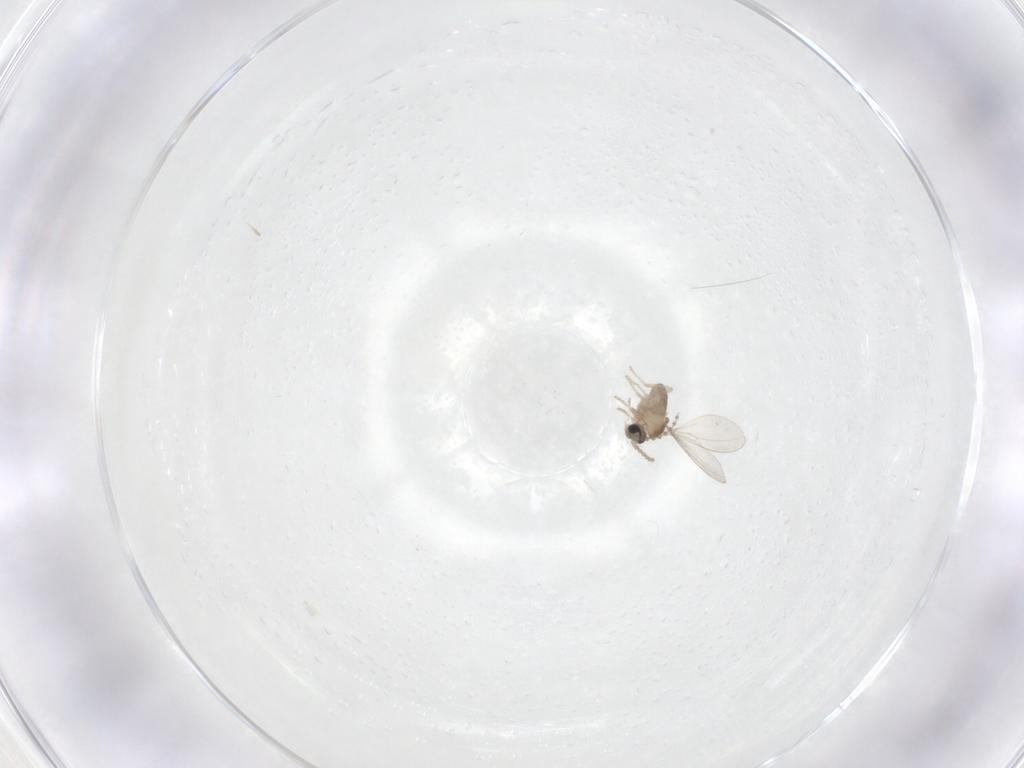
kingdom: Animalia
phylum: Arthropoda
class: Insecta
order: Diptera
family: Cecidomyiidae
